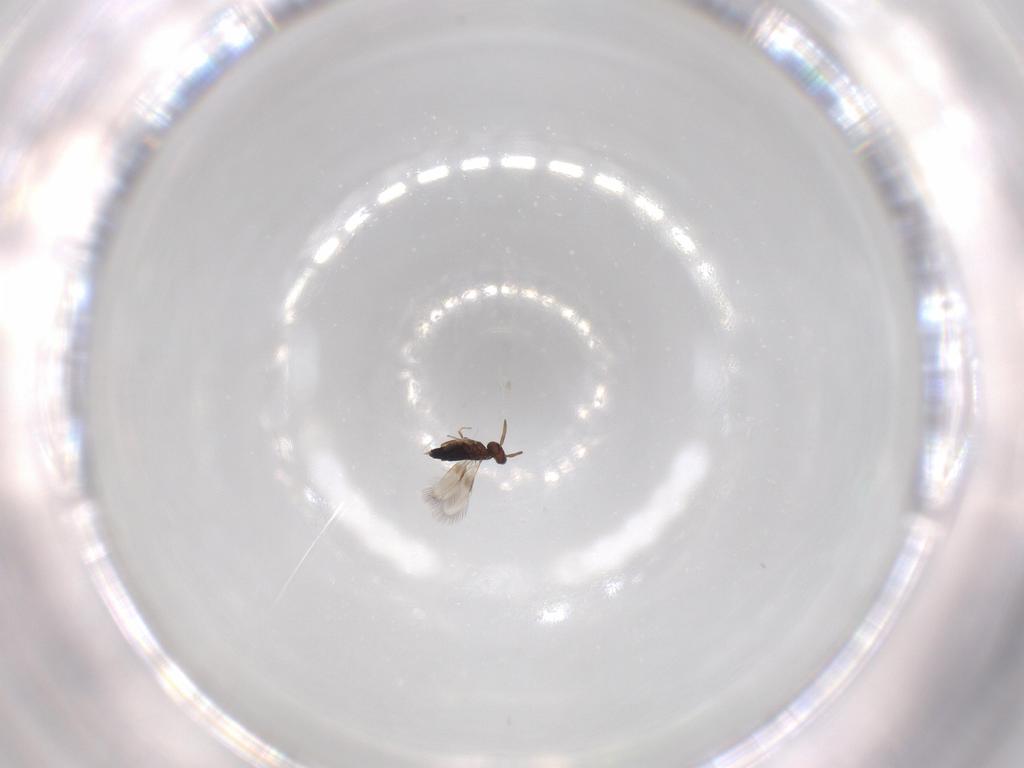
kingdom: Animalia
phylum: Arthropoda
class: Insecta
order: Hymenoptera
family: Signiphoridae
